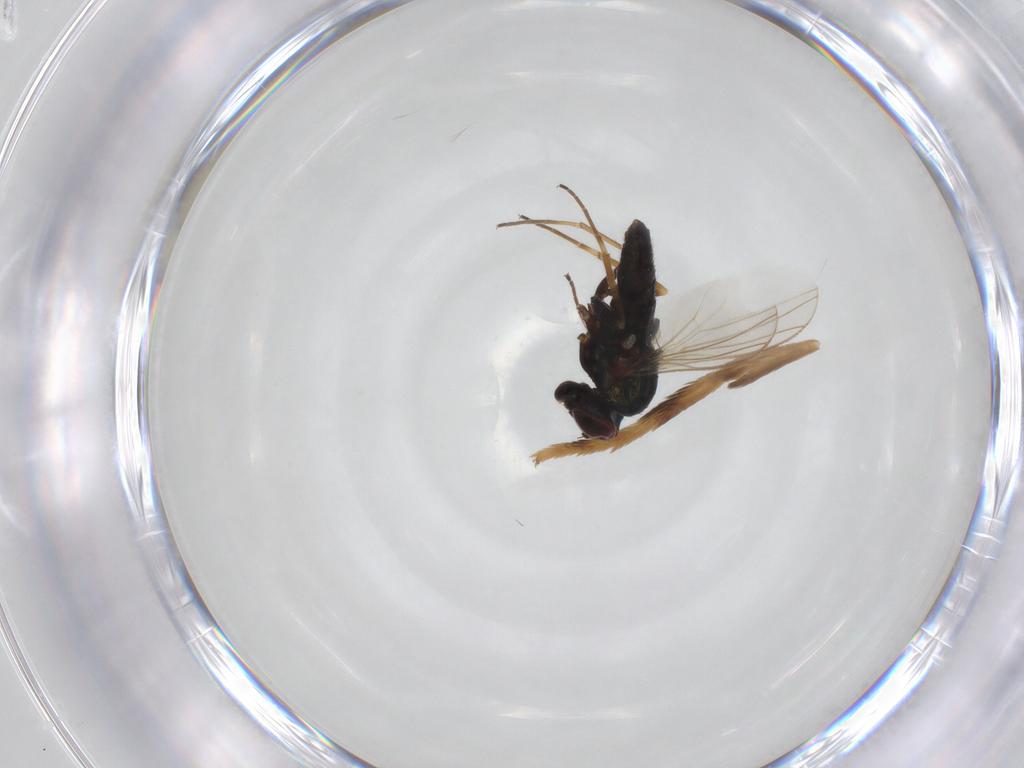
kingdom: Animalia
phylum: Arthropoda
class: Insecta
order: Diptera
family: Dolichopodidae
